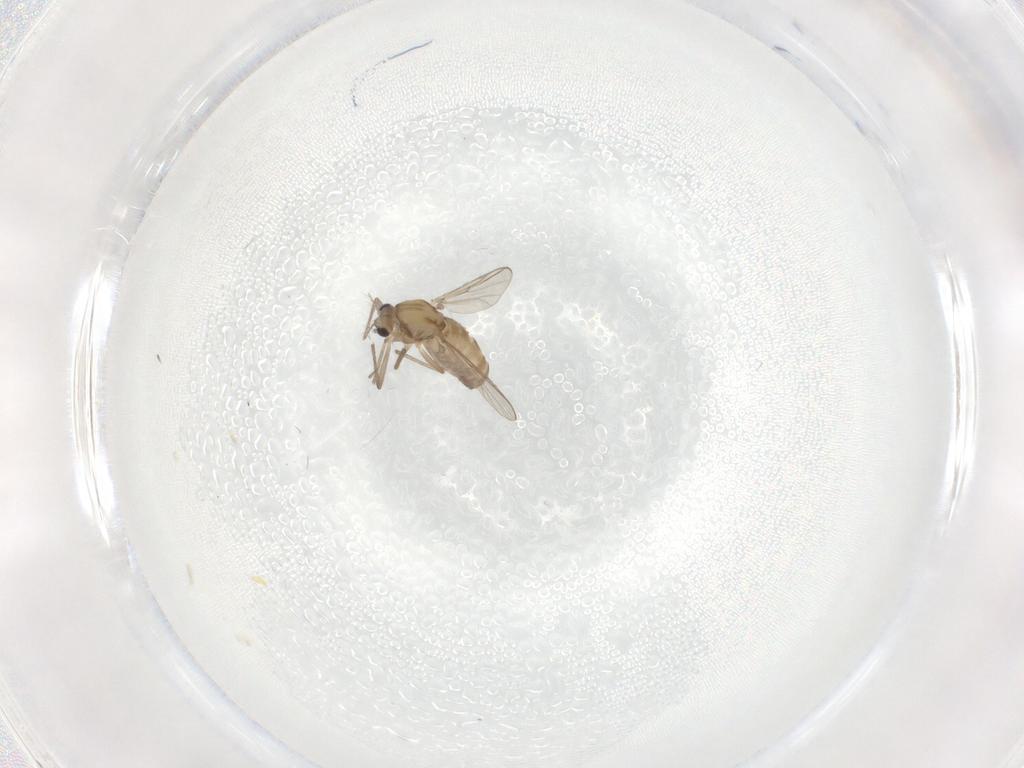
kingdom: Animalia
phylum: Arthropoda
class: Insecta
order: Diptera
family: Chironomidae
